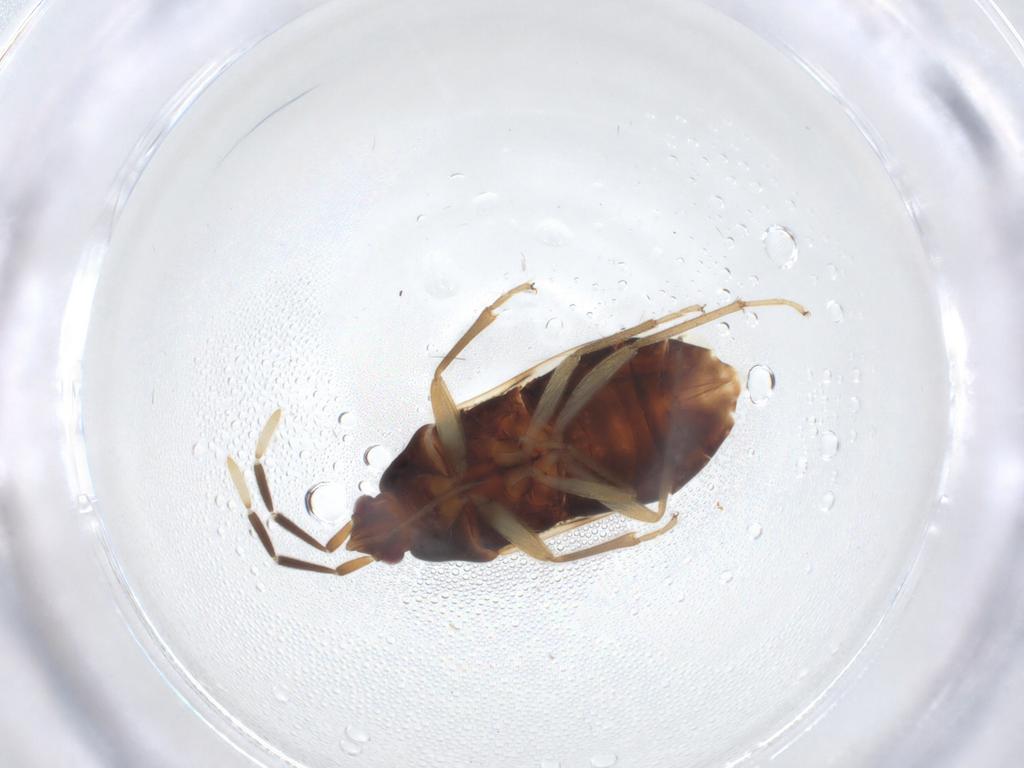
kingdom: Animalia
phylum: Arthropoda
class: Insecta
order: Hemiptera
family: Rhyparochromidae
